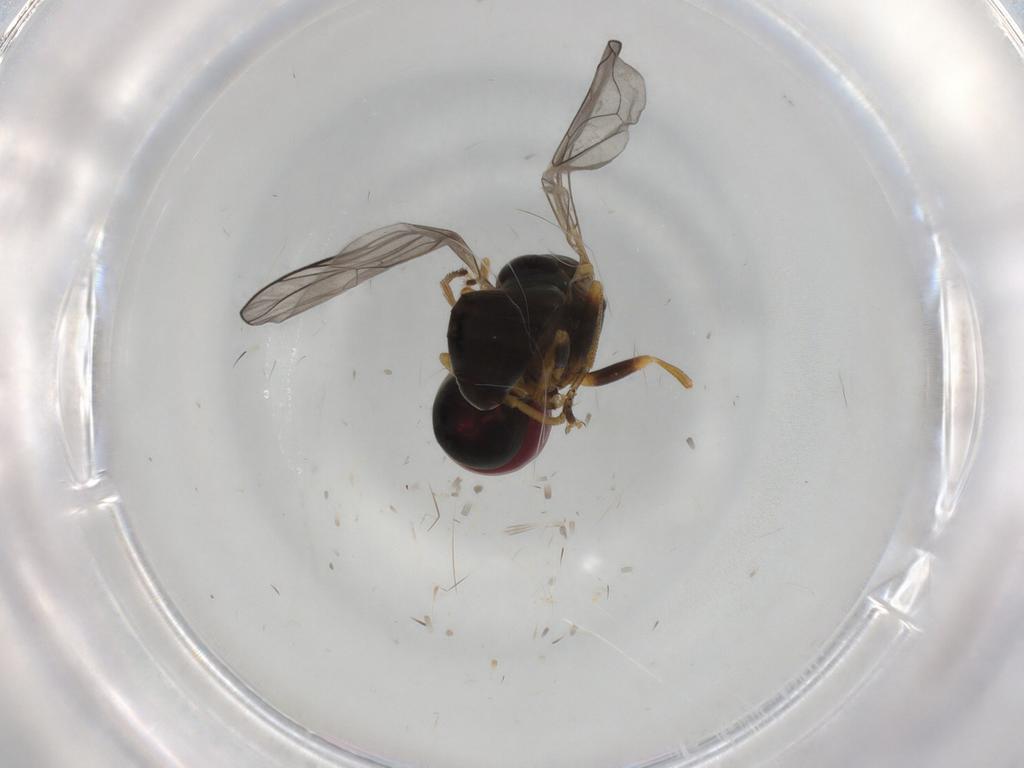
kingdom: Animalia
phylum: Arthropoda
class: Insecta
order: Diptera
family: Pipunculidae
